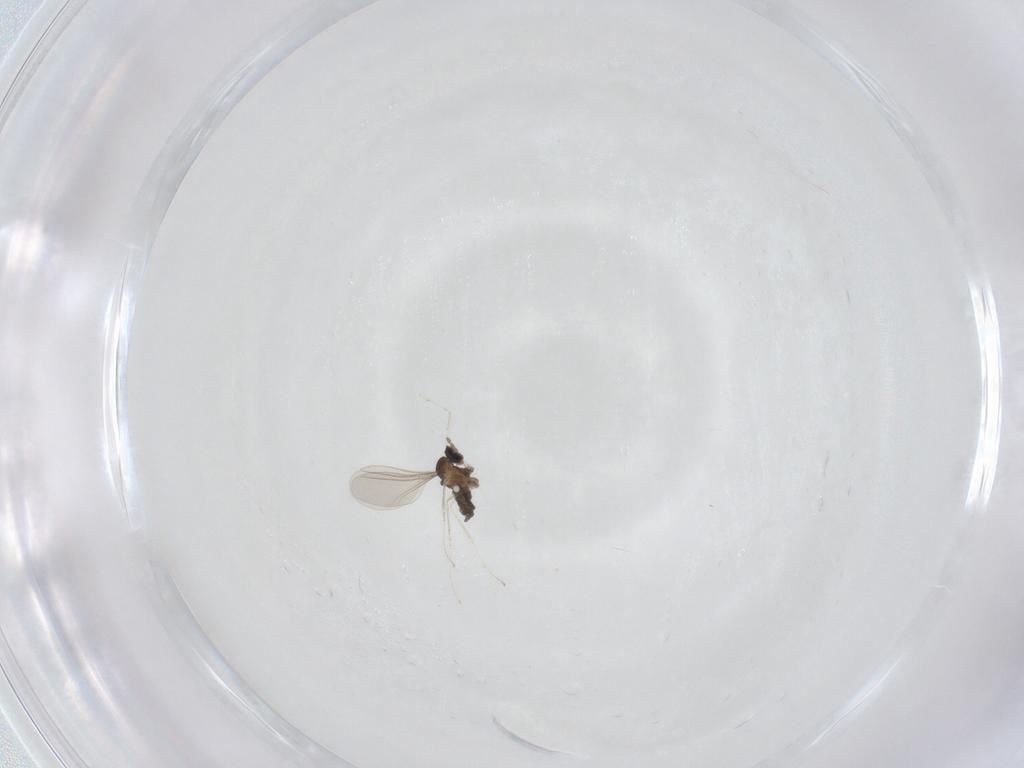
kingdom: Animalia
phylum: Arthropoda
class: Insecta
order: Diptera
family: Cecidomyiidae
